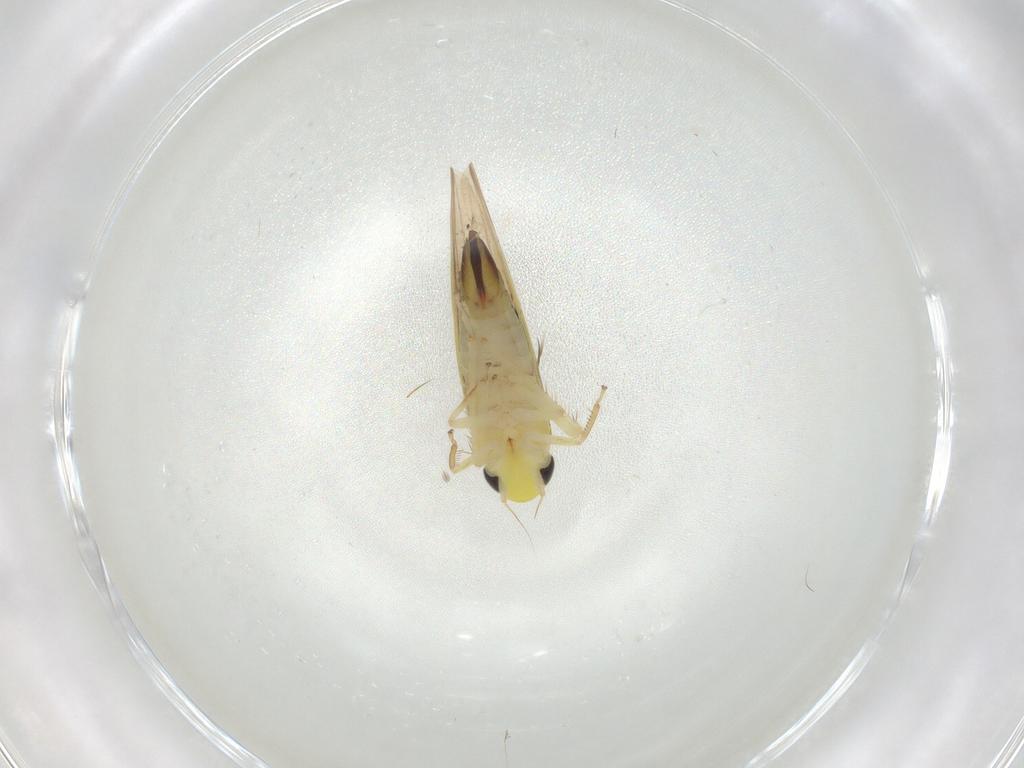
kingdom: Animalia
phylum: Arthropoda
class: Insecta
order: Hemiptera
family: Cicadellidae
